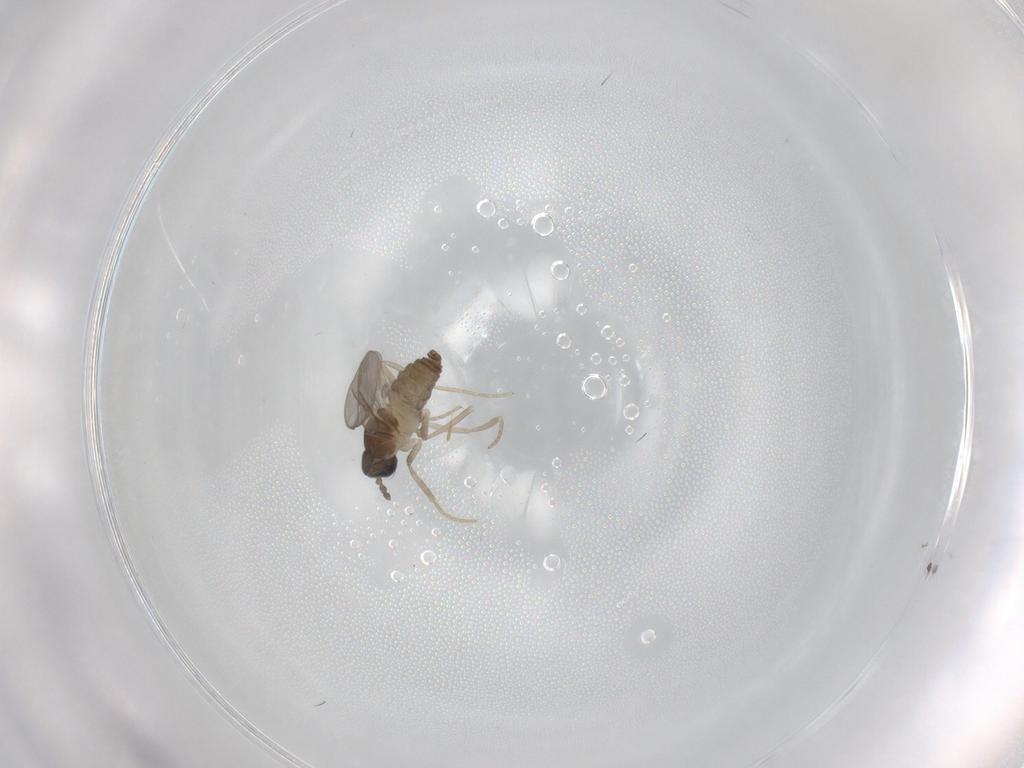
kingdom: Animalia
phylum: Arthropoda
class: Insecta
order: Diptera
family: Cecidomyiidae
